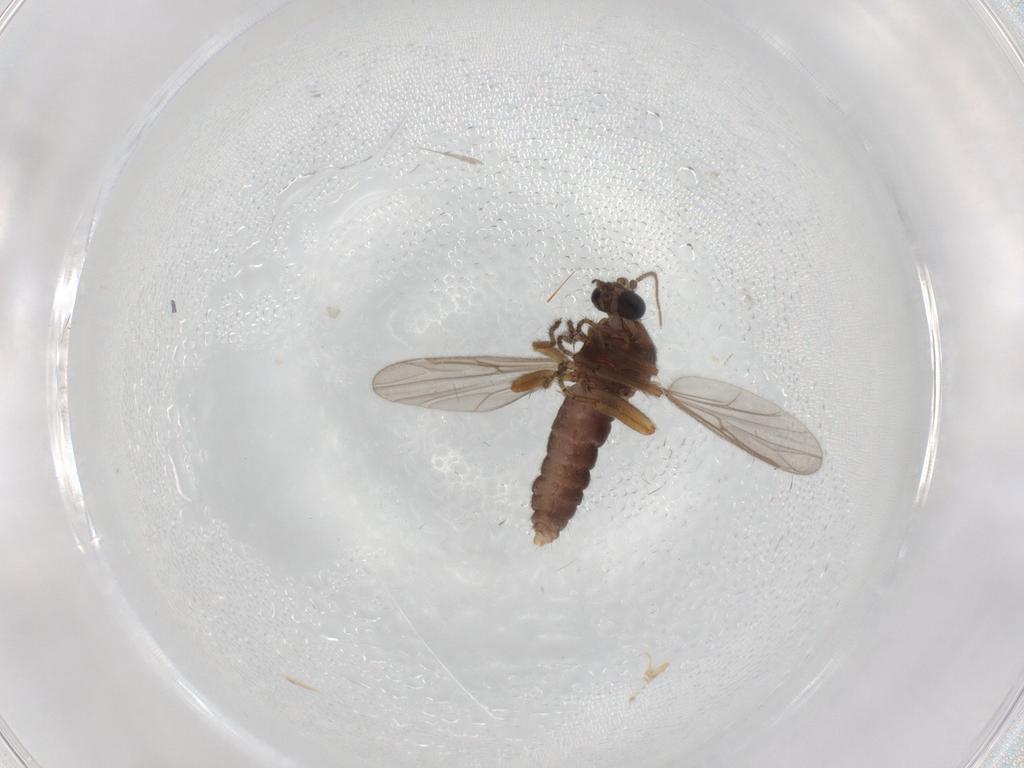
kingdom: Animalia
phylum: Arthropoda
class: Insecta
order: Diptera
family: Ceratopogonidae
